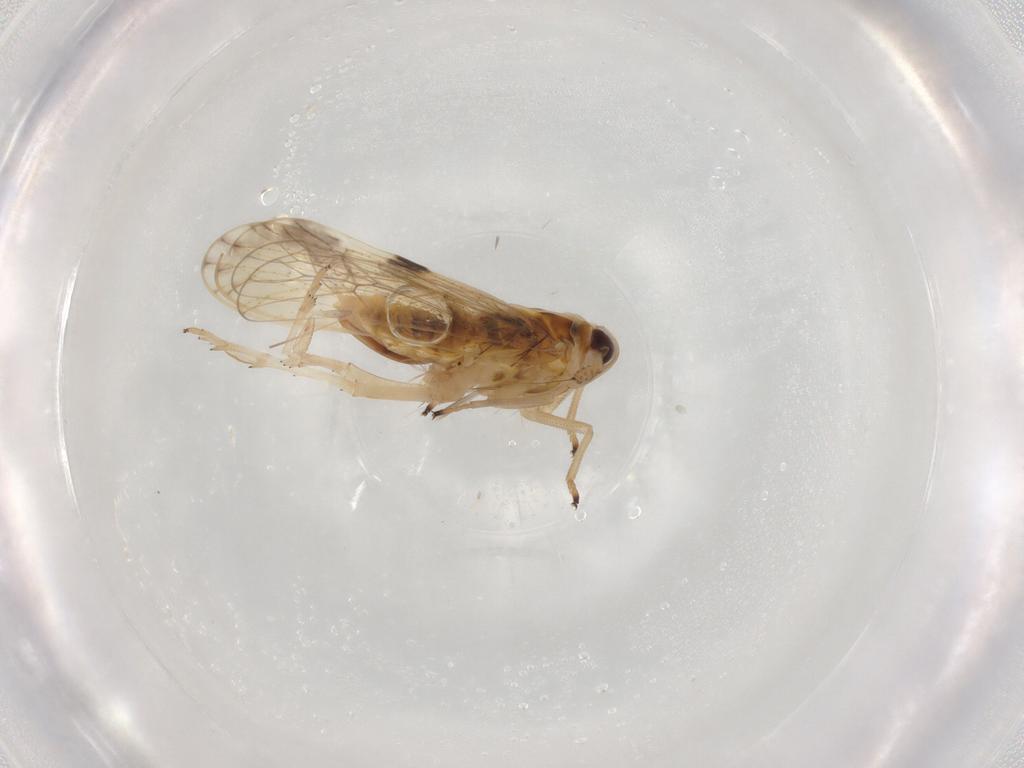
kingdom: Animalia
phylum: Arthropoda
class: Insecta
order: Hemiptera
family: Delphacidae
